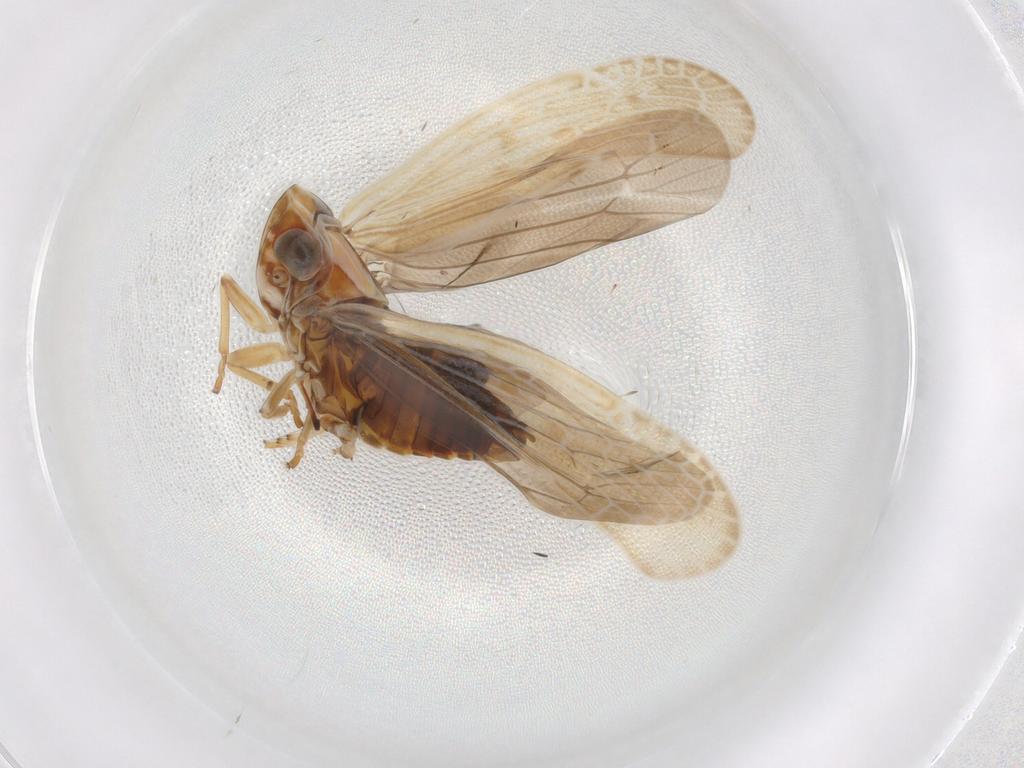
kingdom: Animalia
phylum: Arthropoda
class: Insecta
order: Hemiptera
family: Achilidae
